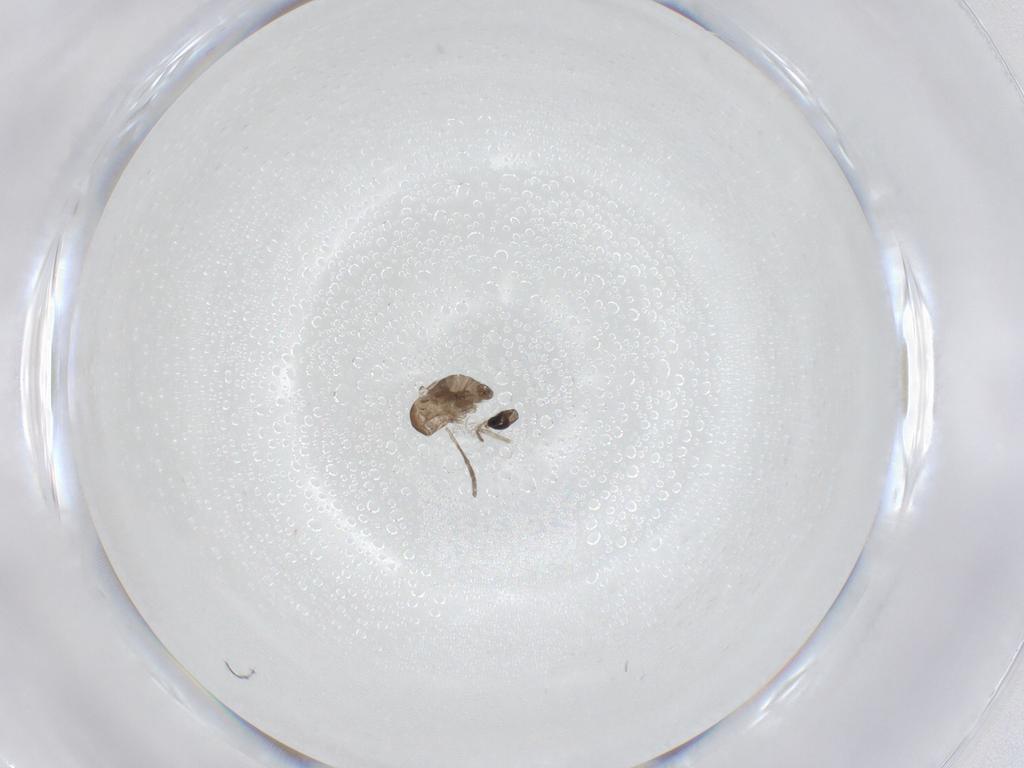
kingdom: Animalia
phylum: Arthropoda
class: Insecta
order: Diptera
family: Psychodidae
